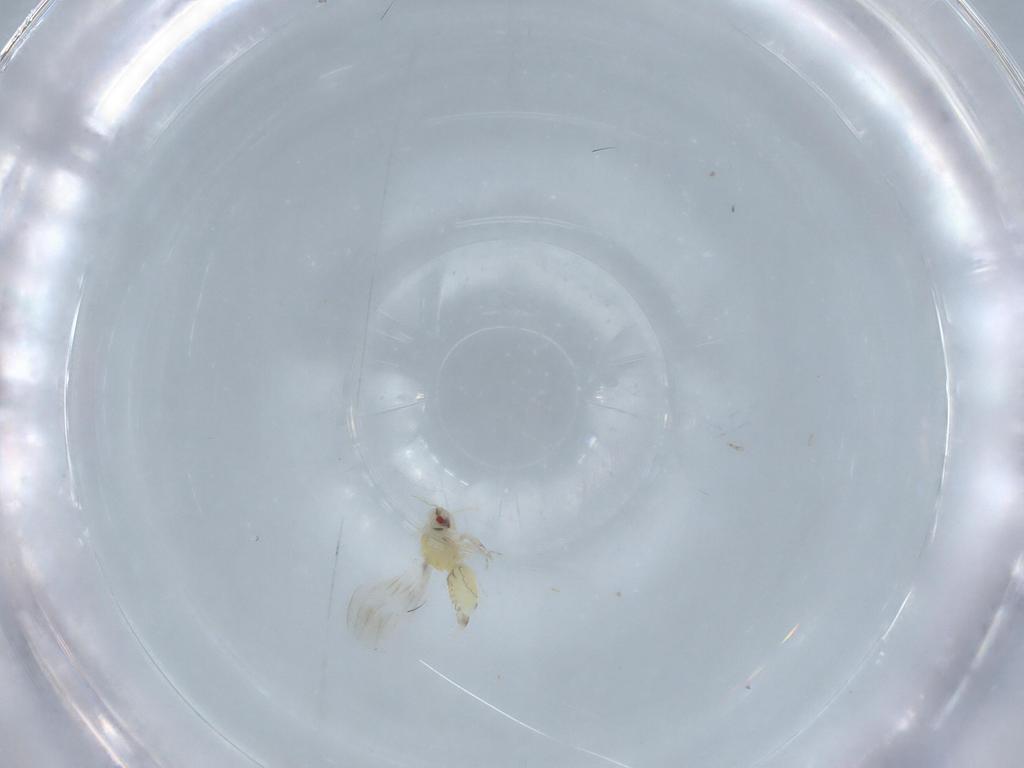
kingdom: Animalia
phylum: Arthropoda
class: Insecta
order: Hemiptera
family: Aleyrodidae
